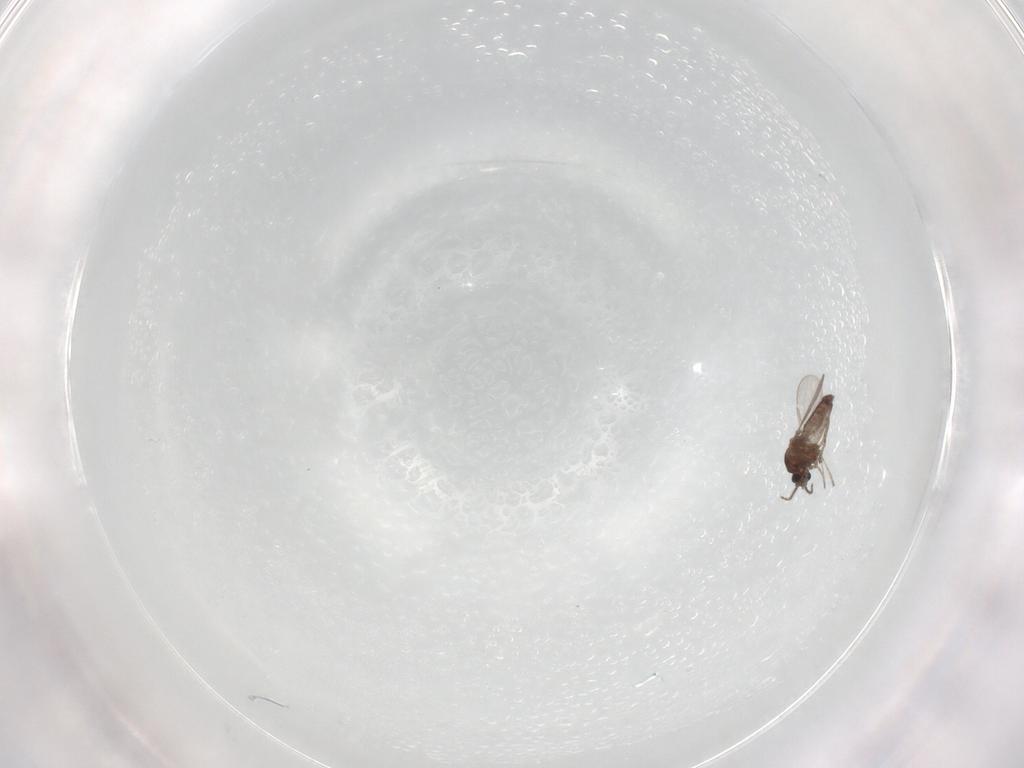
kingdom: Animalia
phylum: Arthropoda
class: Insecta
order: Diptera
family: Ceratopogonidae
